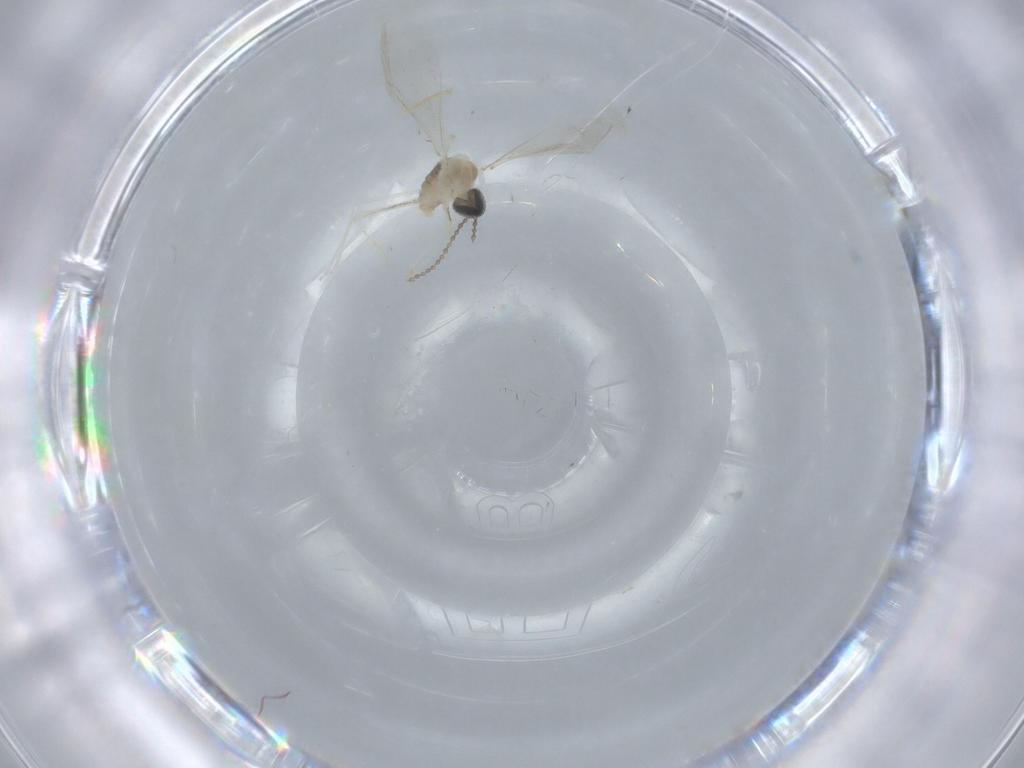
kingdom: Animalia
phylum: Arthropoda
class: Insecta
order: Diptera
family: Cecidomyiidae
